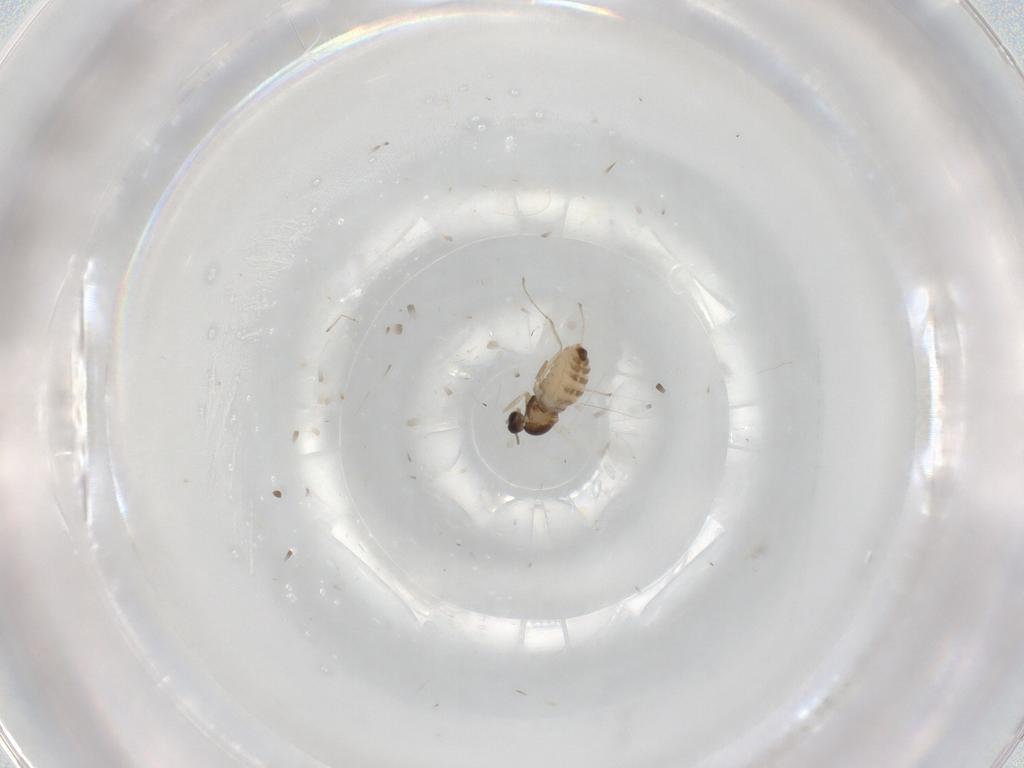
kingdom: Animalia
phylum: Arthropoda
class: Insecta
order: Diptera
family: Cecidomyiidae
